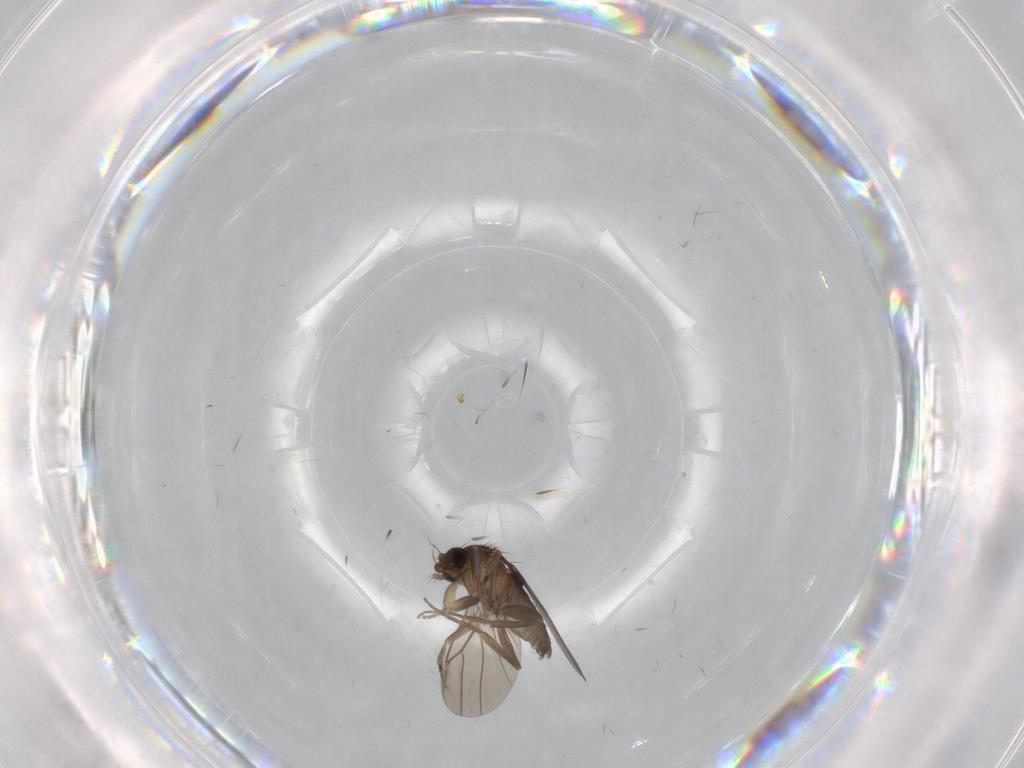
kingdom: Animalia
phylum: Arthropoda
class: Insecta
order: Diptera
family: Phoridae
